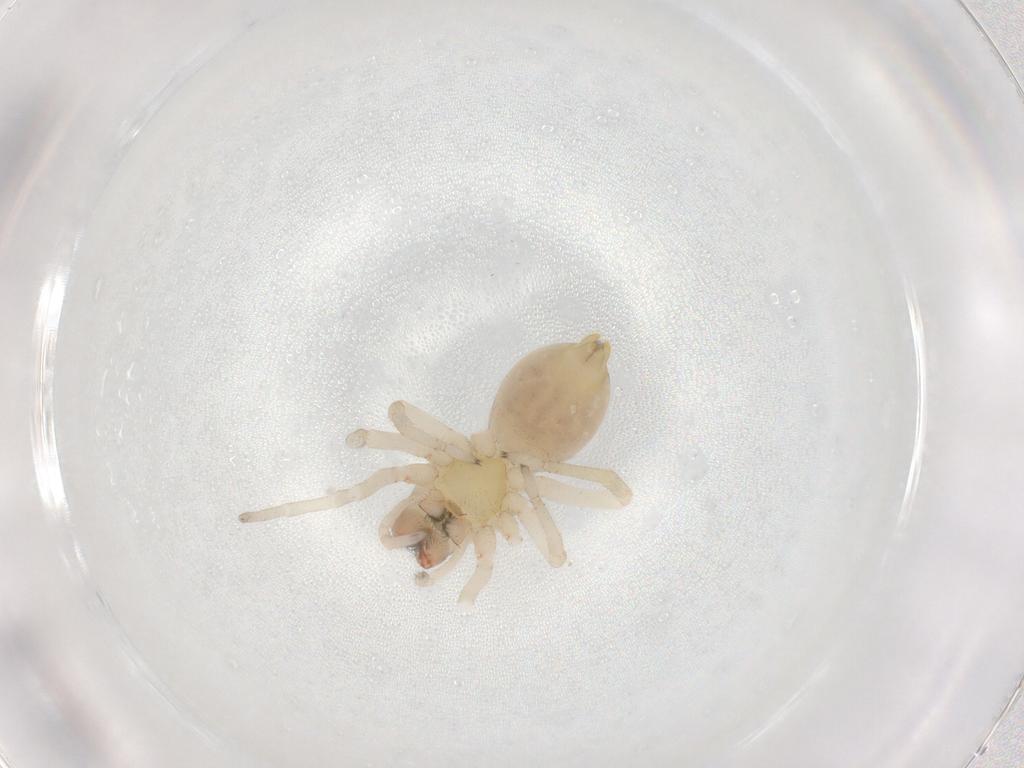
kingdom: Animalia
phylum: Arthropoda
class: Arachnida
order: Araneae
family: Cheiracanthiidae
